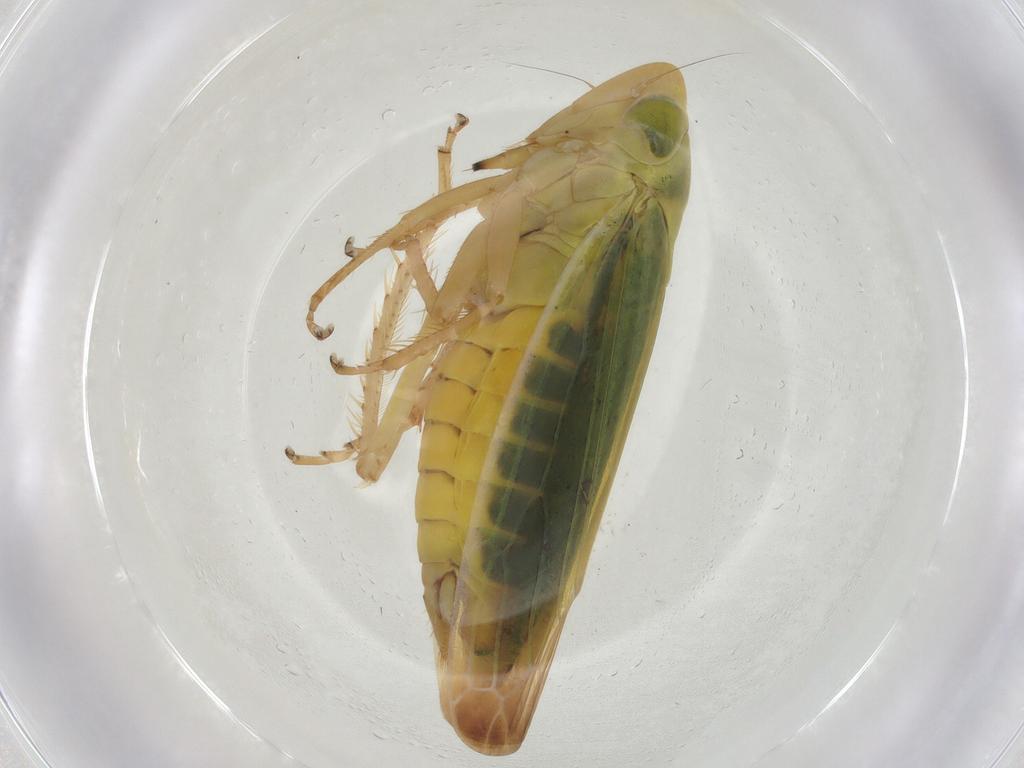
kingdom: Animalia
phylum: Arthropoda
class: Insecta
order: Hemiptera
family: Cicadellidae
